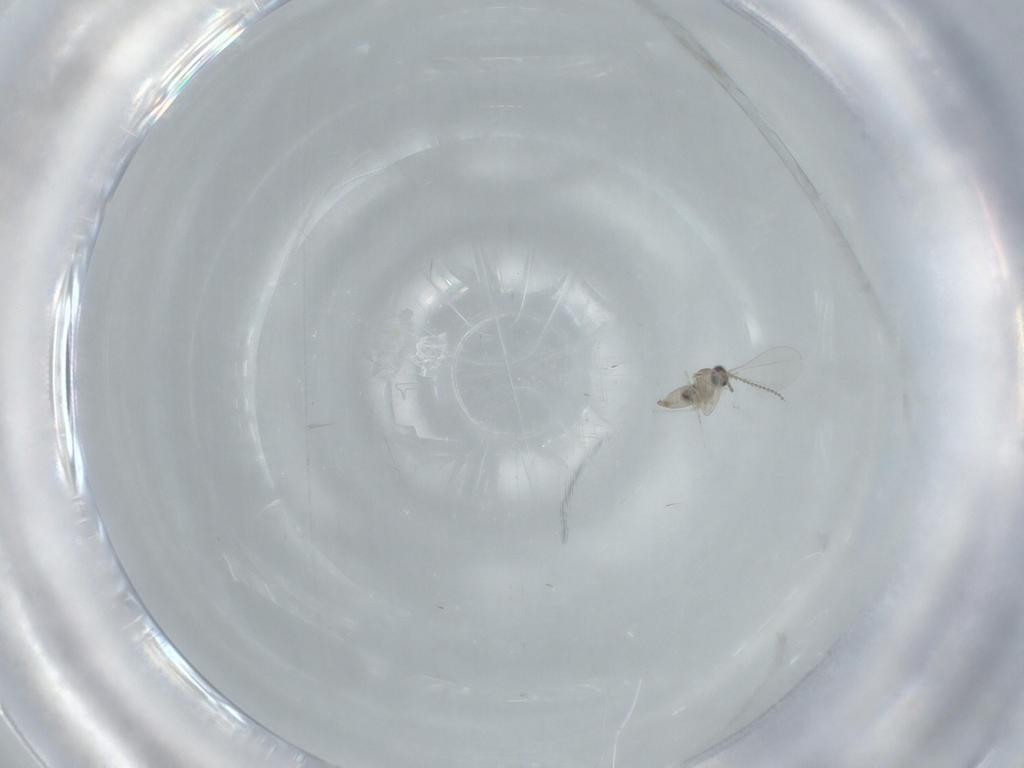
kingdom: Animalia
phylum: Arthropoda
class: Insecta
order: Diptera
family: Cecidomyiidae
